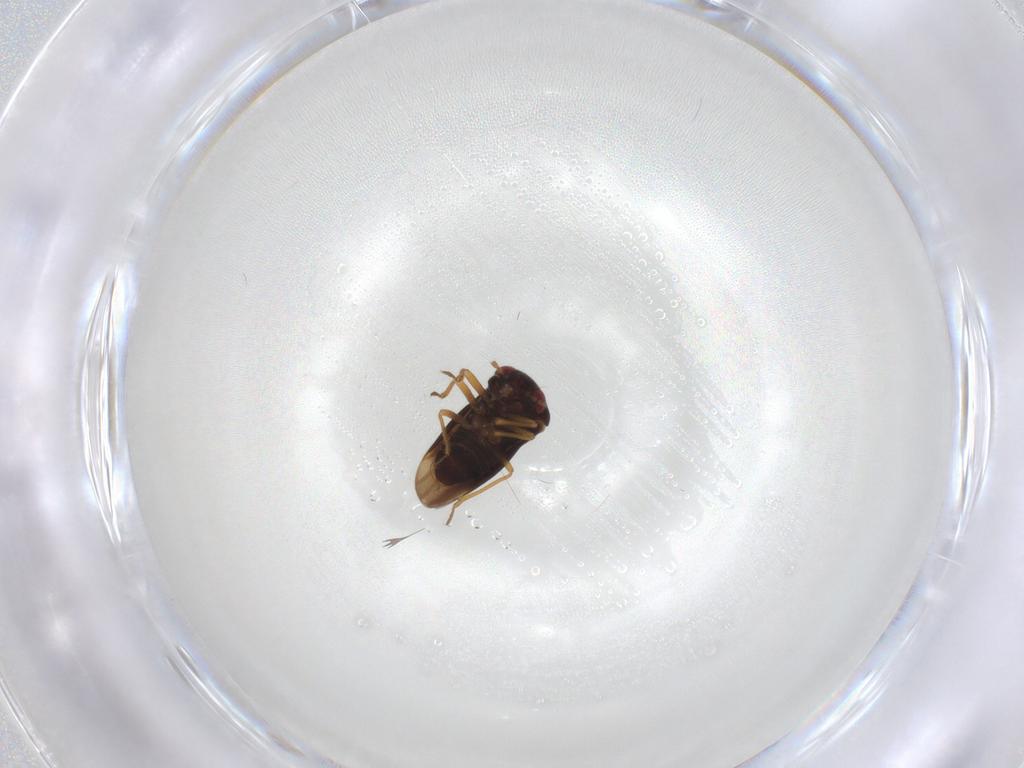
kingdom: Animalia
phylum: Arthropoda
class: Insecta
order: Hemiptera
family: Schizopteridae
